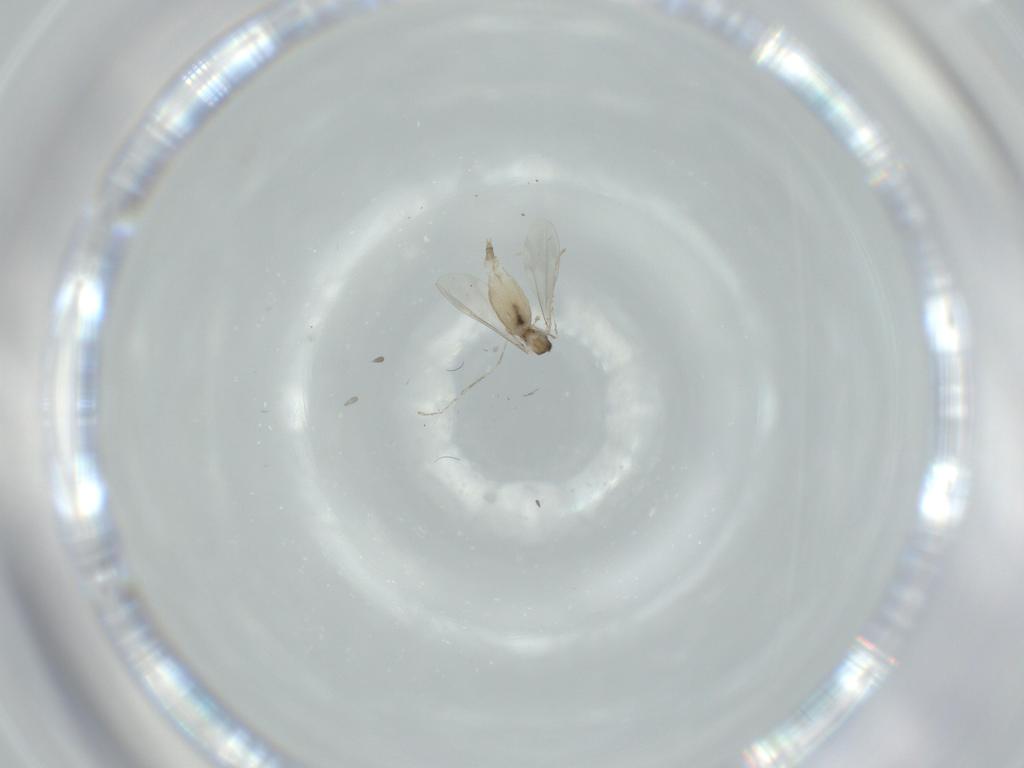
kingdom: Animalia
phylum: Arthropoda
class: Insecta
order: Diptera
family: Cecidomyiidae
